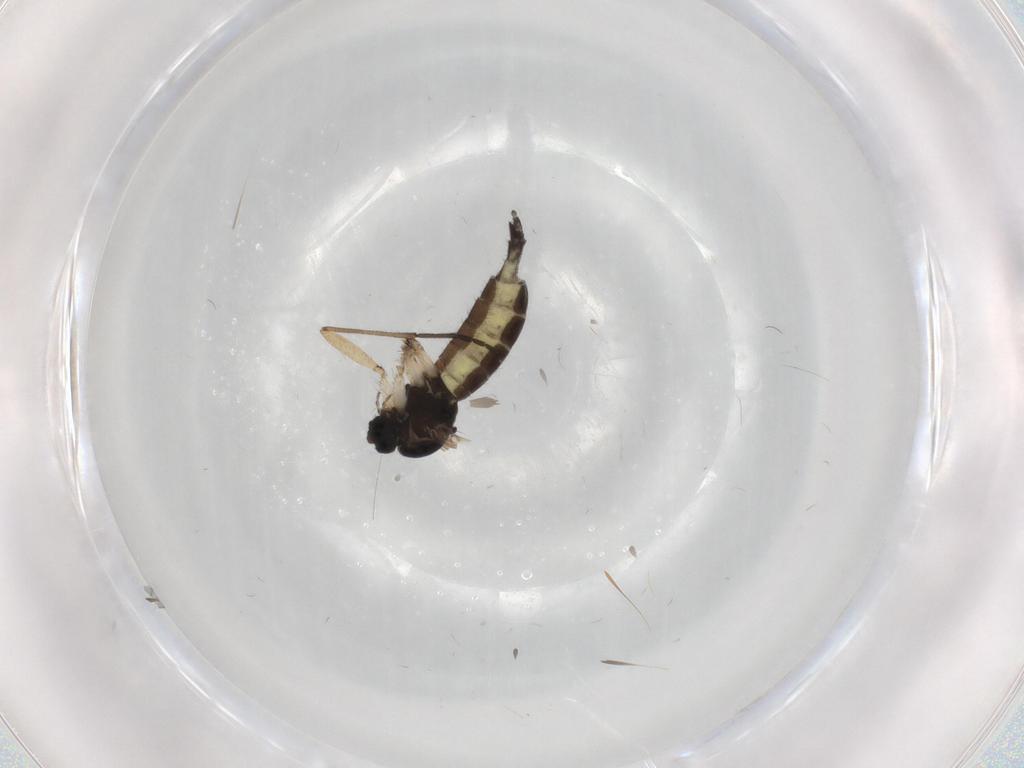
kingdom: Animalia
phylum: Arthropoda
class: Insecta
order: Diptera
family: Sciaridae
